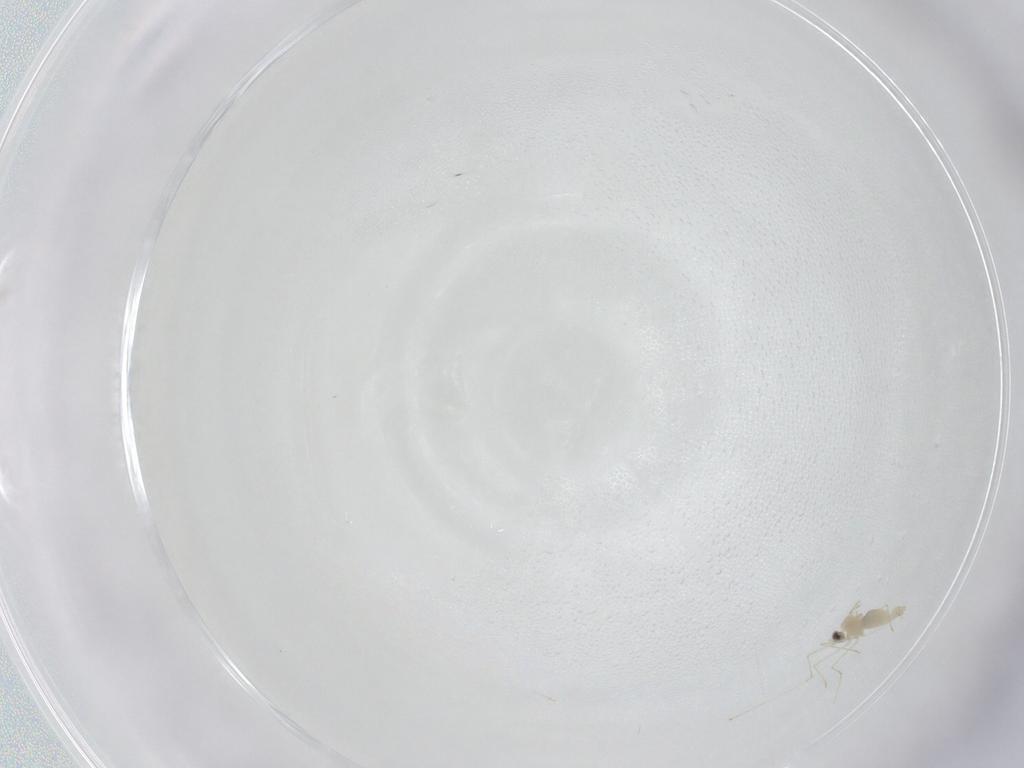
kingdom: Animalia
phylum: Arthropoda
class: Insecta
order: Diptera
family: Cecidomyiidae
